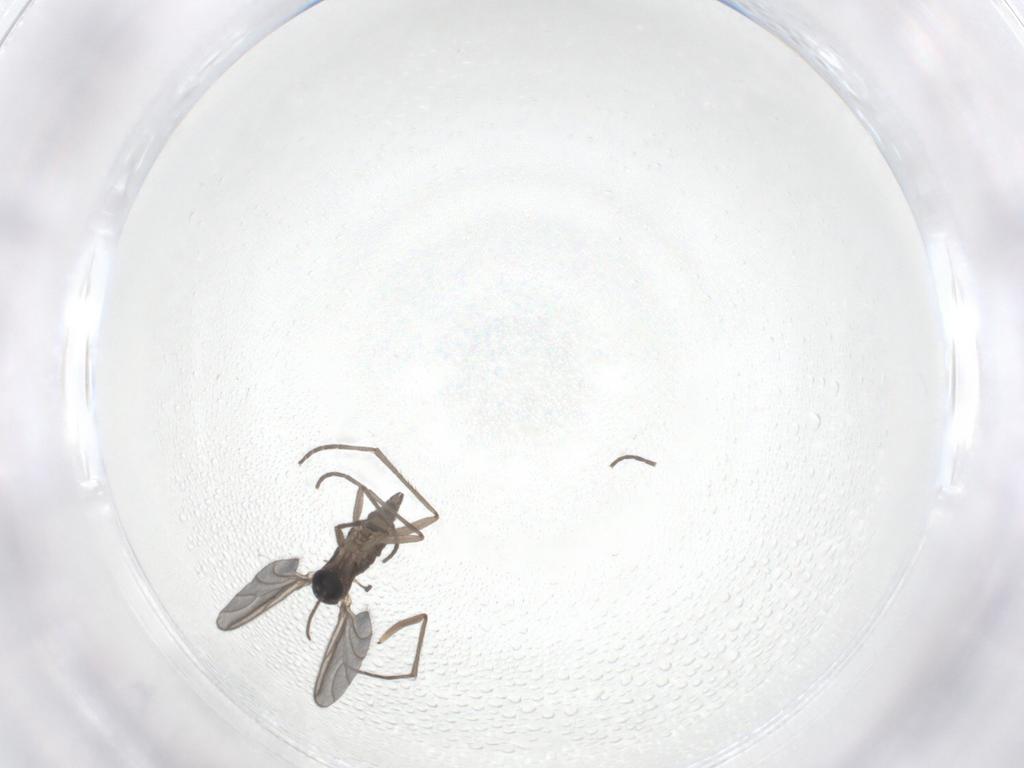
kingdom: Animalia
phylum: Arthropoda
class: Insecta
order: Diptera
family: Sciaridae
